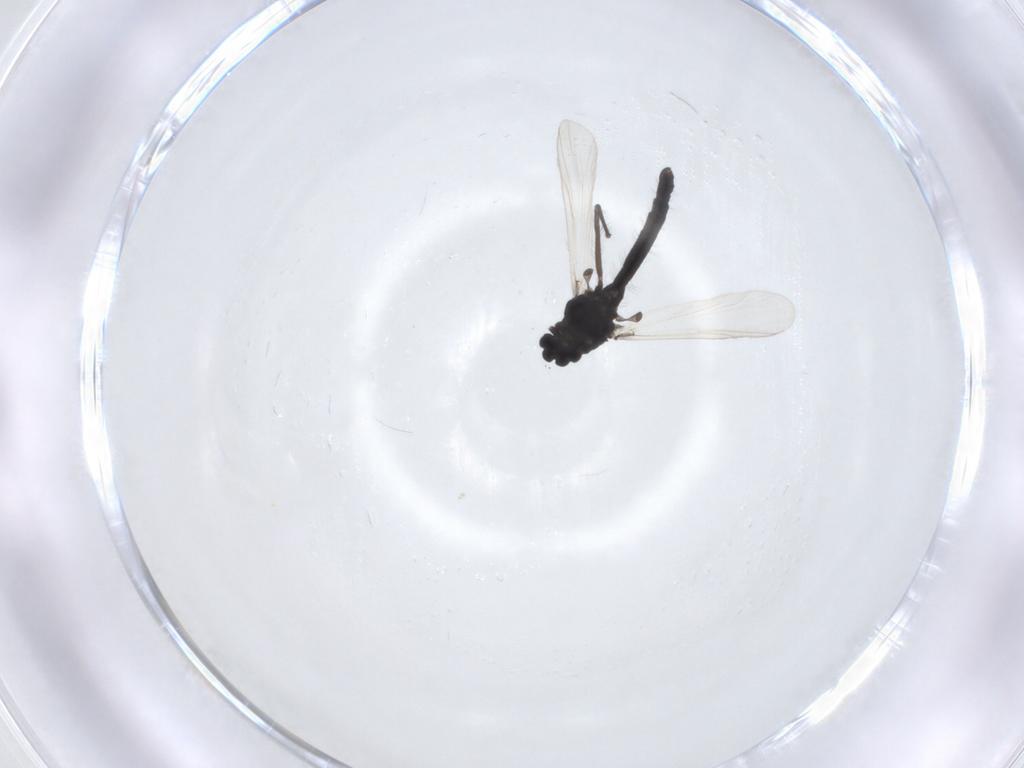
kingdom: Animalia
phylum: Arthropoda
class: Insecta
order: Diptera
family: Chironomidae
